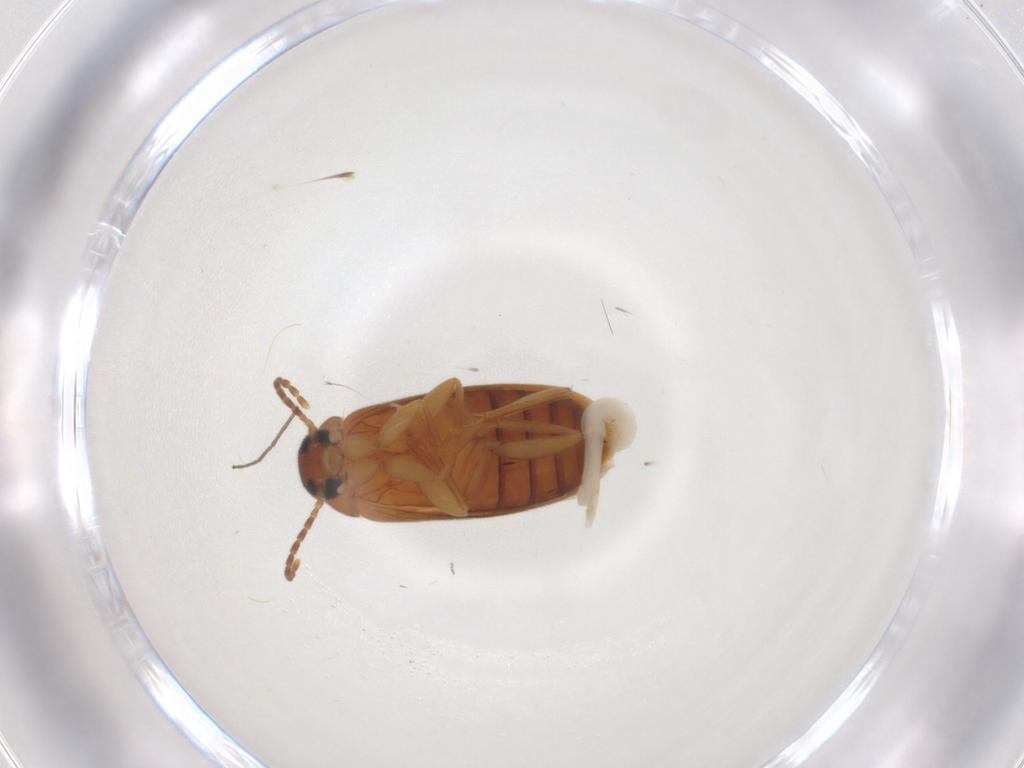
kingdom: Animalia
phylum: Arthropoda
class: Insecta
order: Coleoptera
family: Scraptiidae
